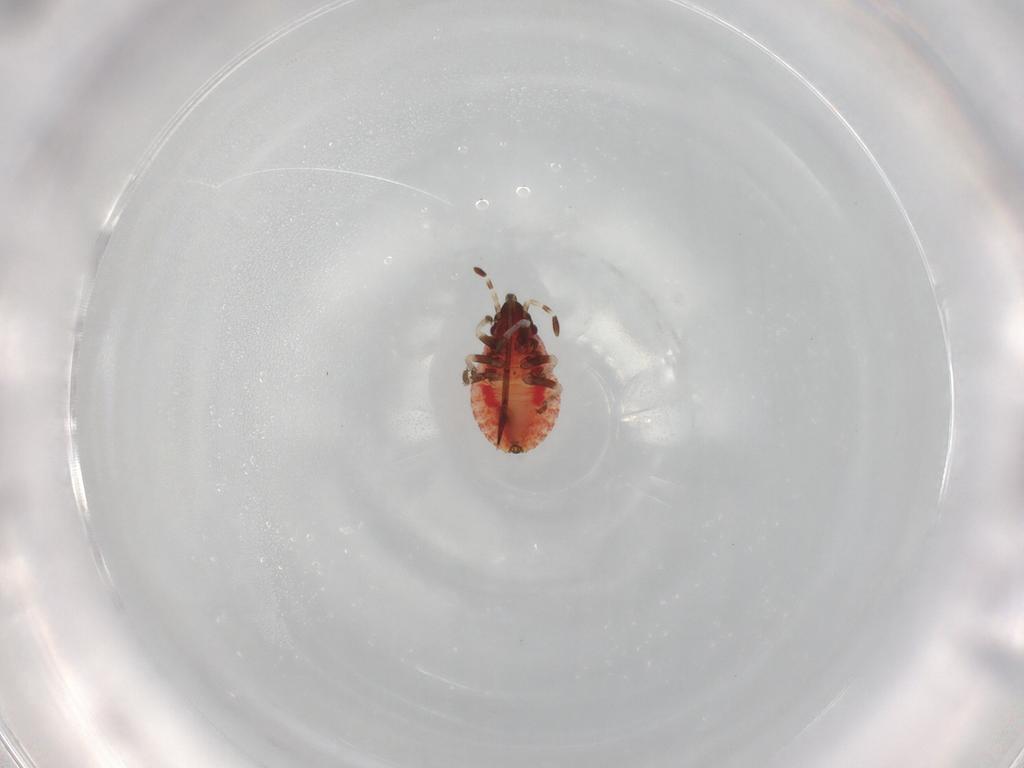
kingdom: Animalia
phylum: Arthropoda
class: Insecta
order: Hemiptera
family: Lygaeidae
